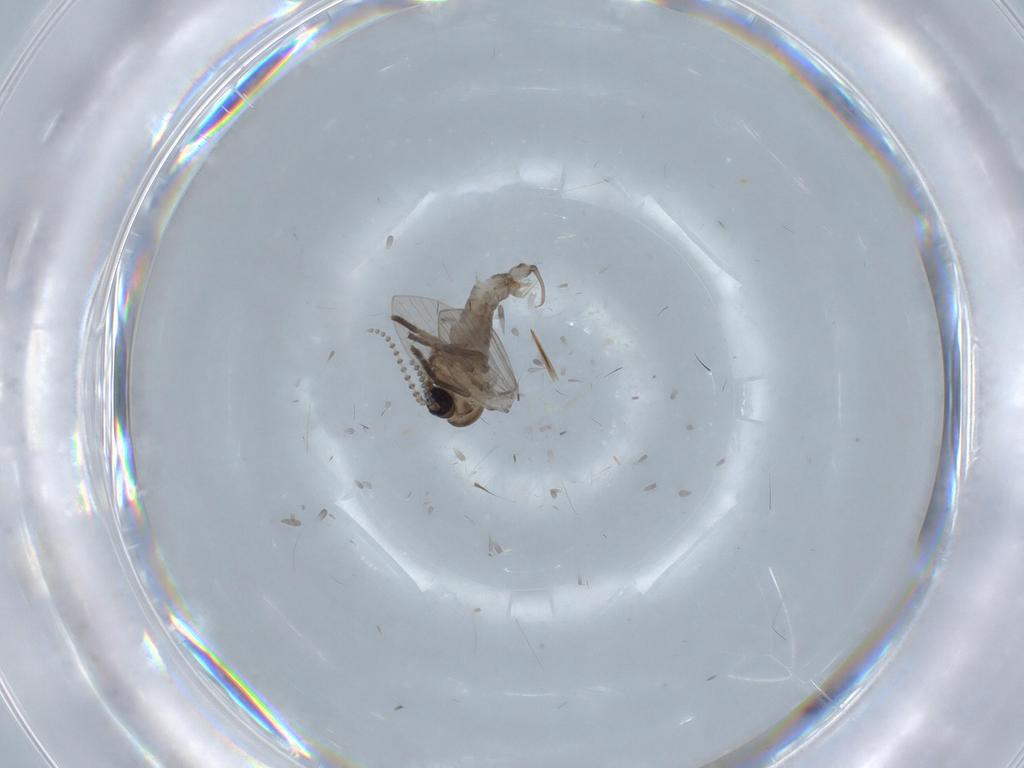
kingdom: Animalia
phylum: Arthropoda
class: Insecta
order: Diptera
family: Psychodidae
